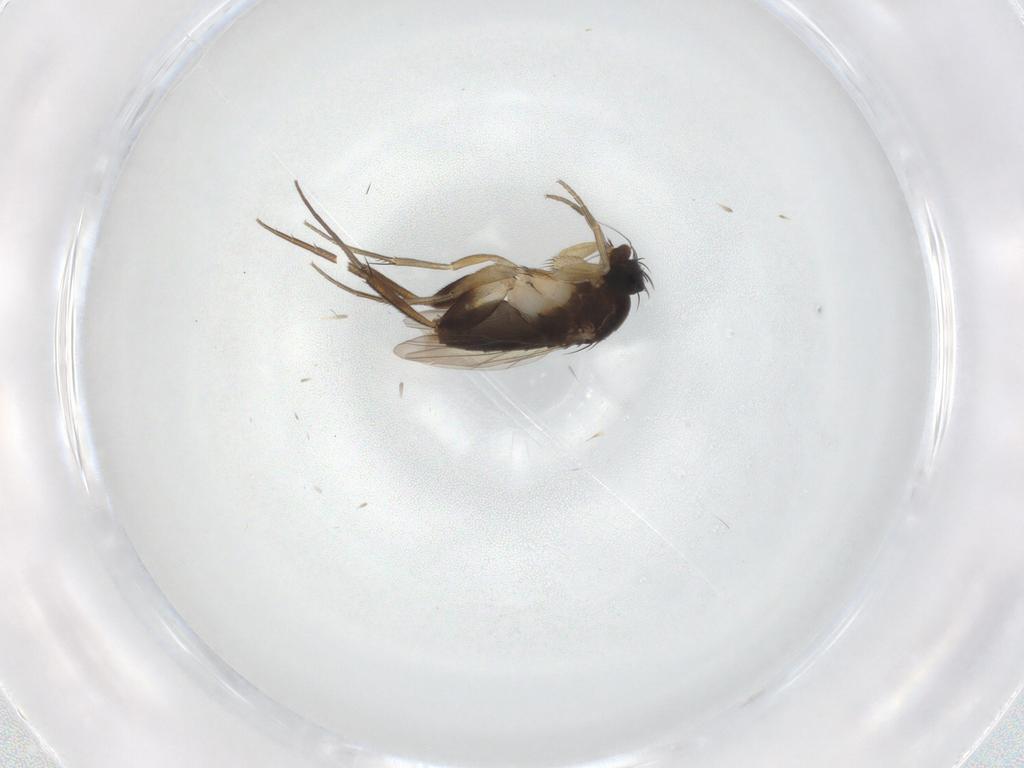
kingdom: Animalia
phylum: Arthropoda
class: Insecta
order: Diptera
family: Phoridae
